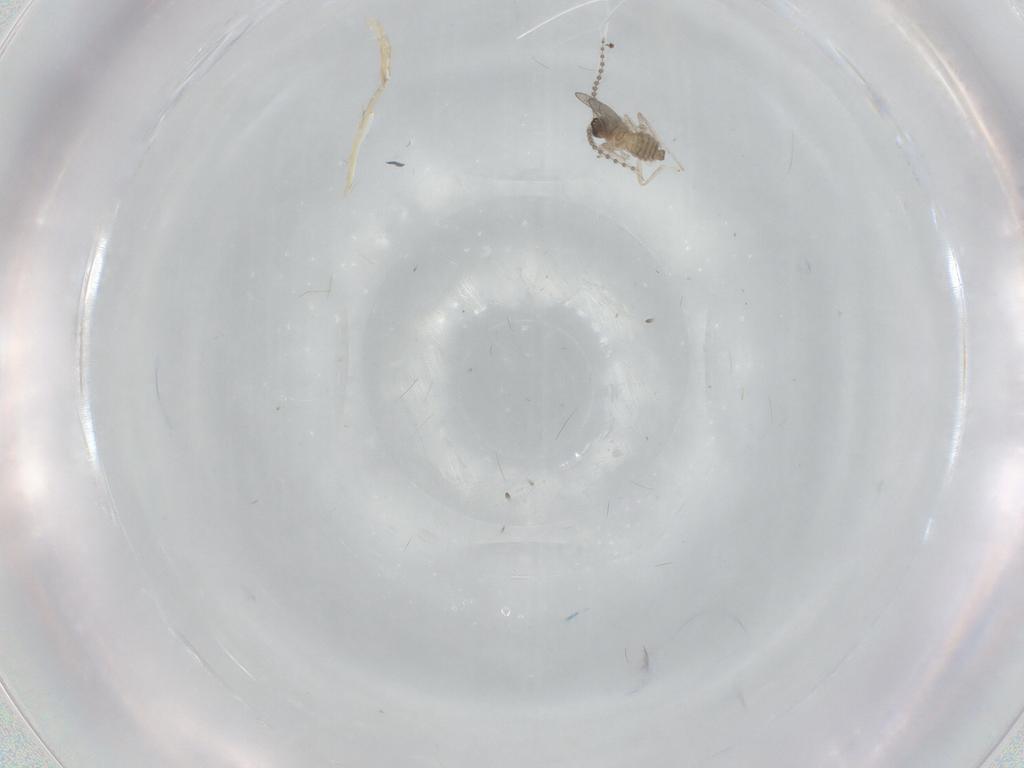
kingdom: Animalia
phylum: Arthropoda
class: Insecta
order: Diptera
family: Cecidomyiidae
